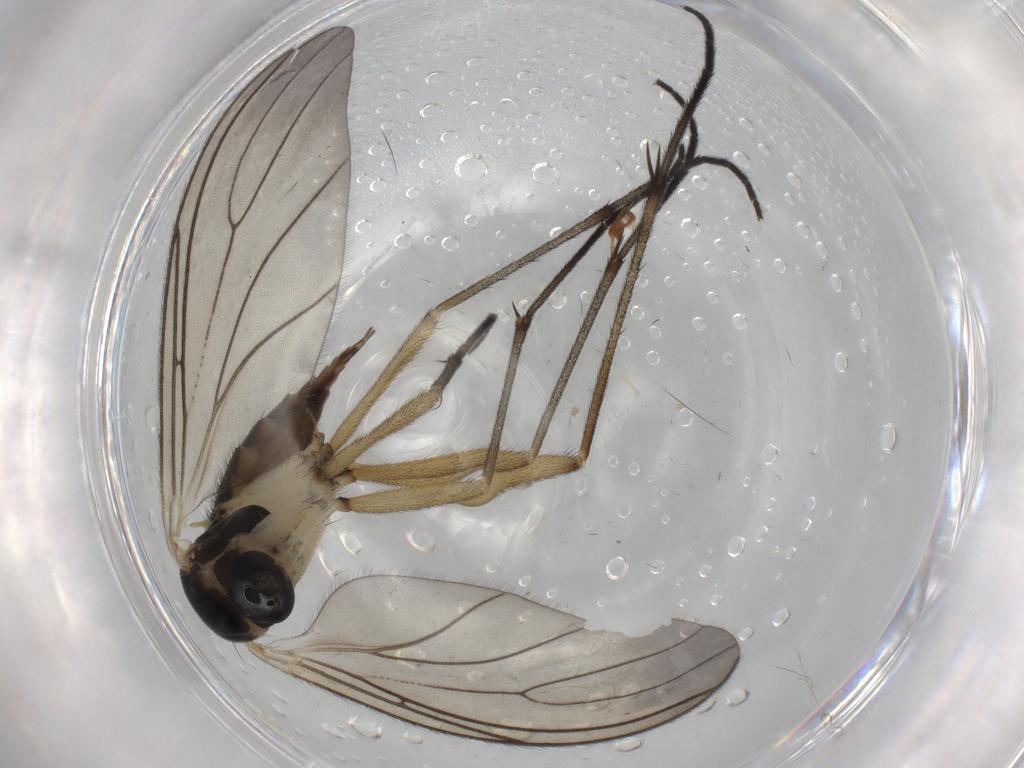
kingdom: Animalia
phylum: Arthropoda
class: Insecta
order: Diptera
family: Sciaridae
